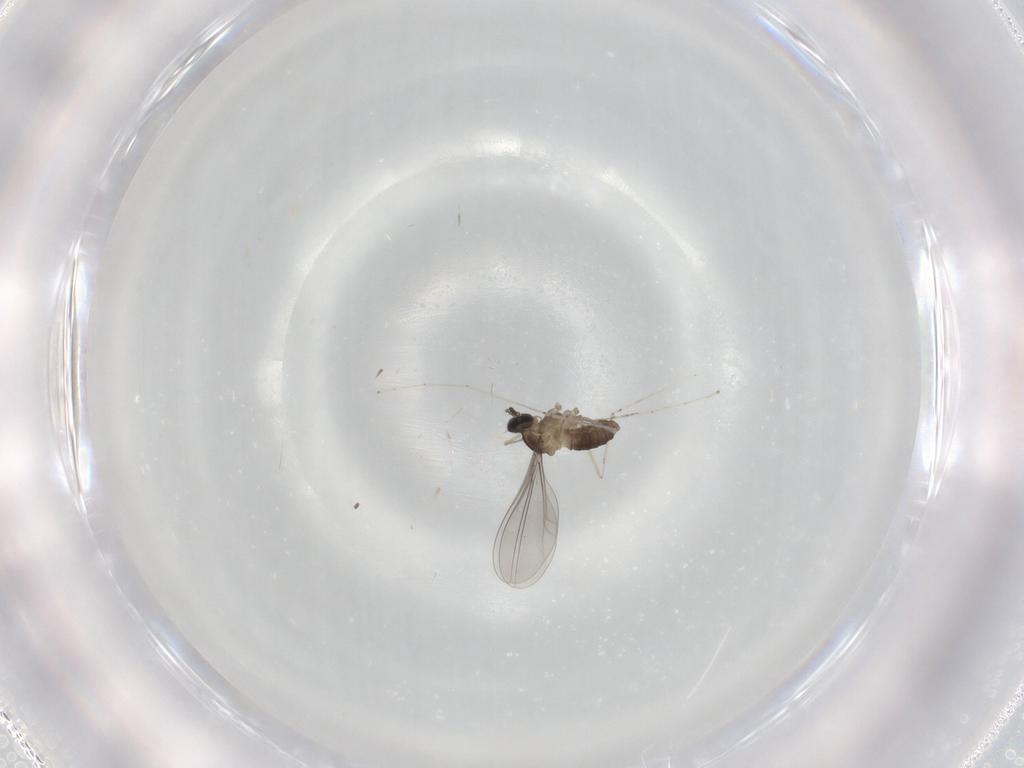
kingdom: Animalia
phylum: Arthropoda
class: Insecta
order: Diptera
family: Cecidomyiidae
